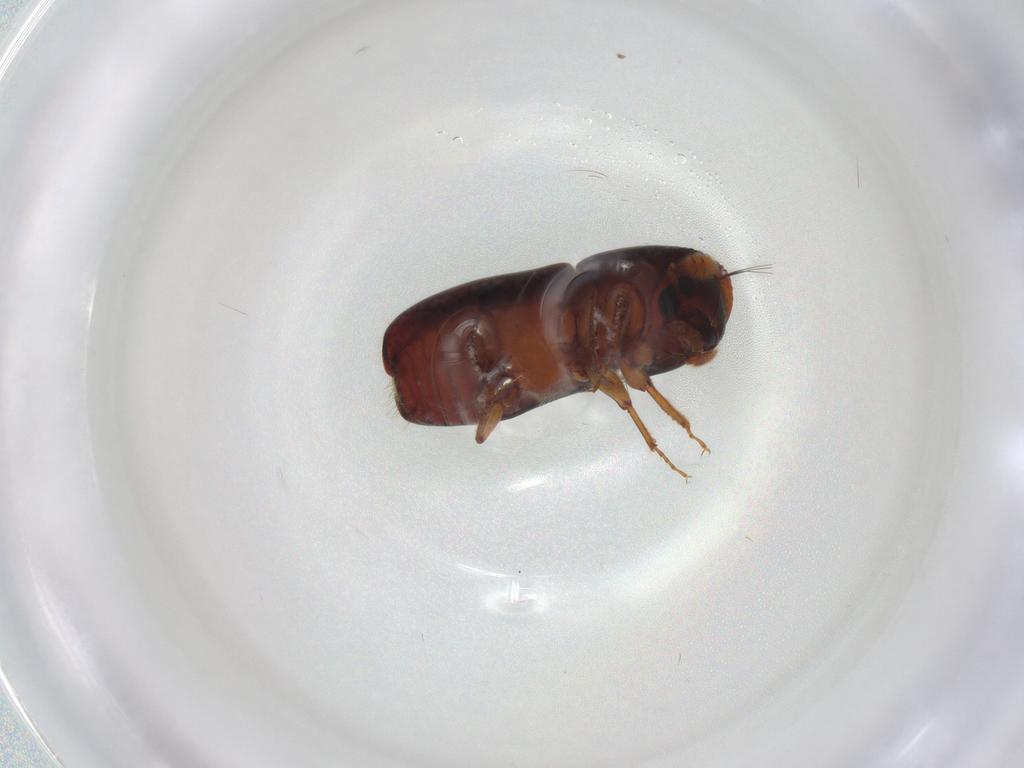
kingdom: Animalia
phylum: Arthropoda
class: Insecta
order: Coleoptera
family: Curculionidae
